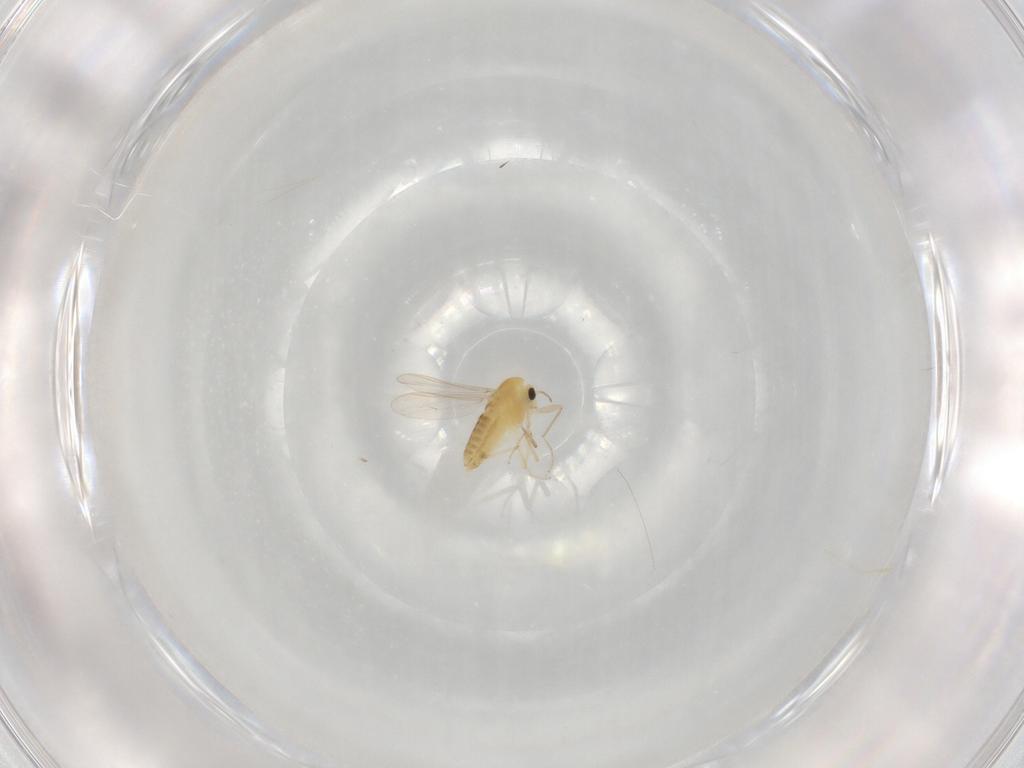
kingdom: Animalia
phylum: Arthropoda
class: Insecta
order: Diptera
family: Chironomidae
